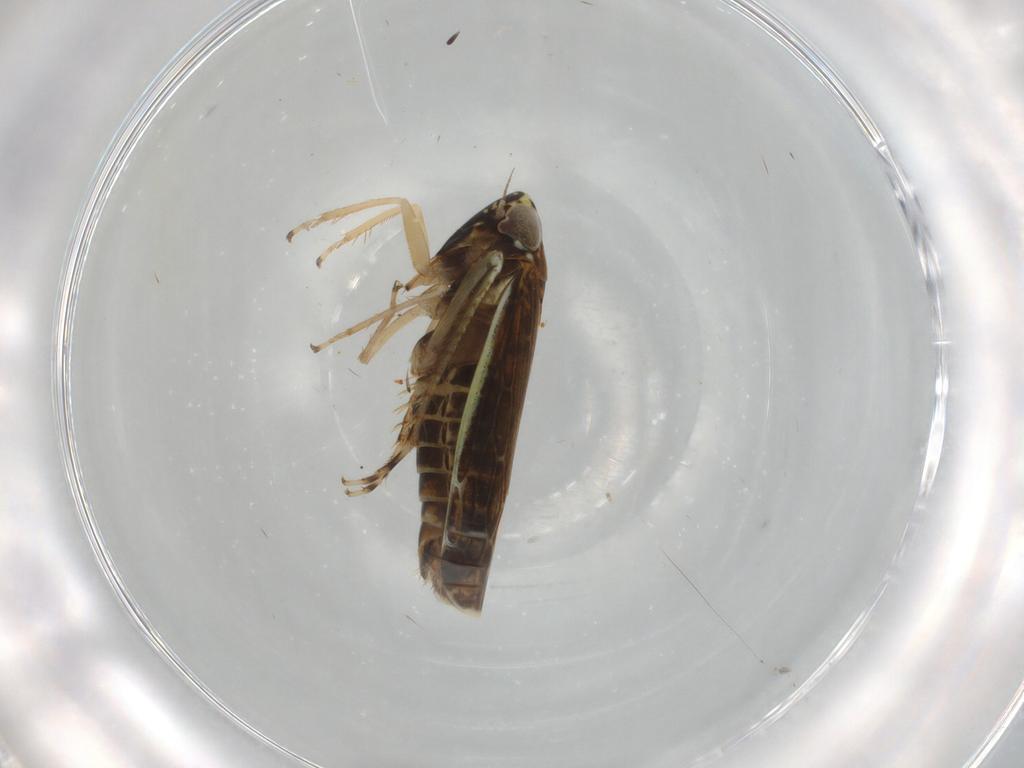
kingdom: Animalia
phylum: Arthropoda
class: Insecta
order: Hemiptera
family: Cicadellidae
